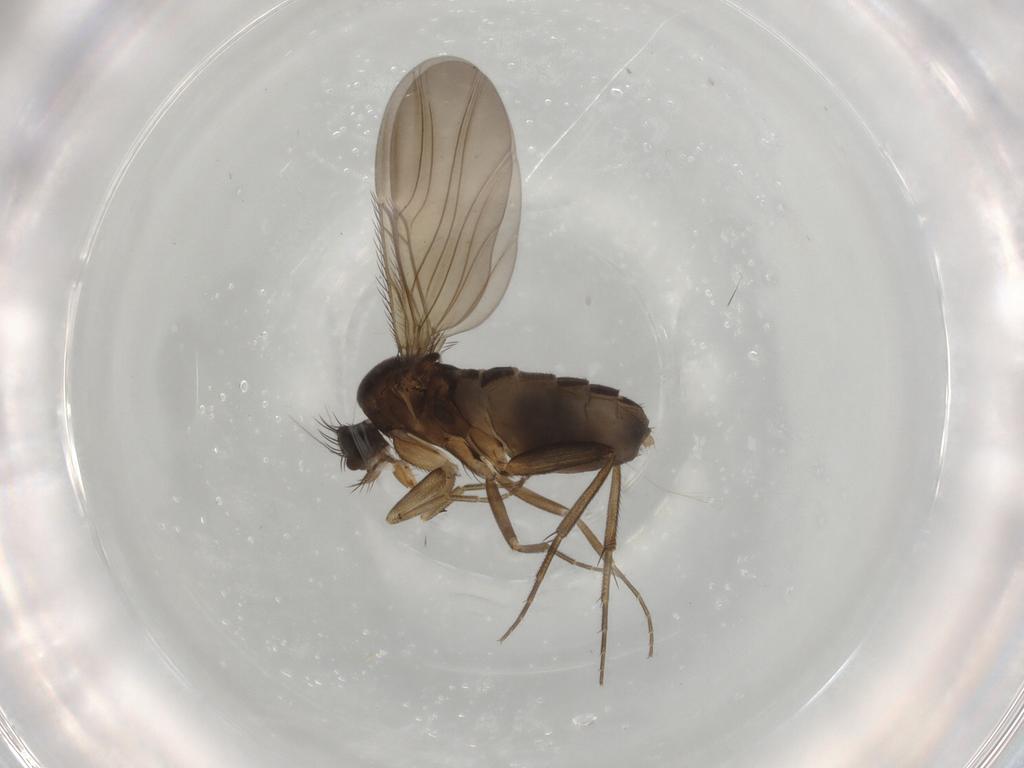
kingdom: Animalia
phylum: Arthropoda
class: Insecta
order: Diptera
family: Phoridae
